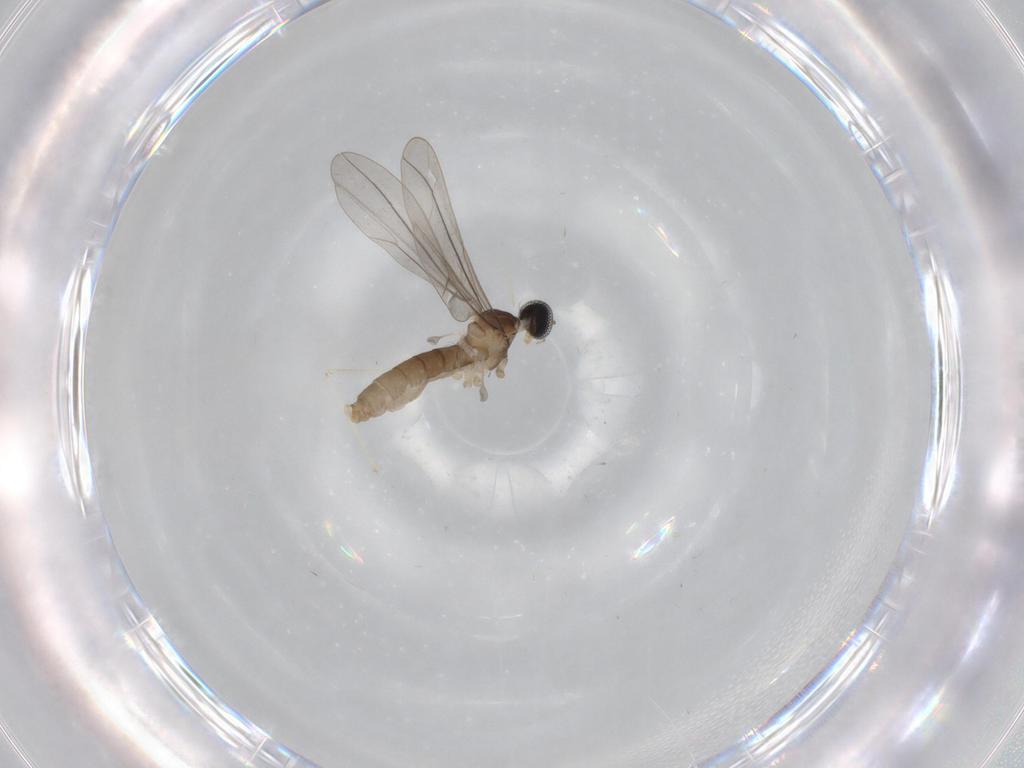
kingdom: Animalia
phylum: Arthropoda
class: Insecta
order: Diptera
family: Cecidomyiidae
